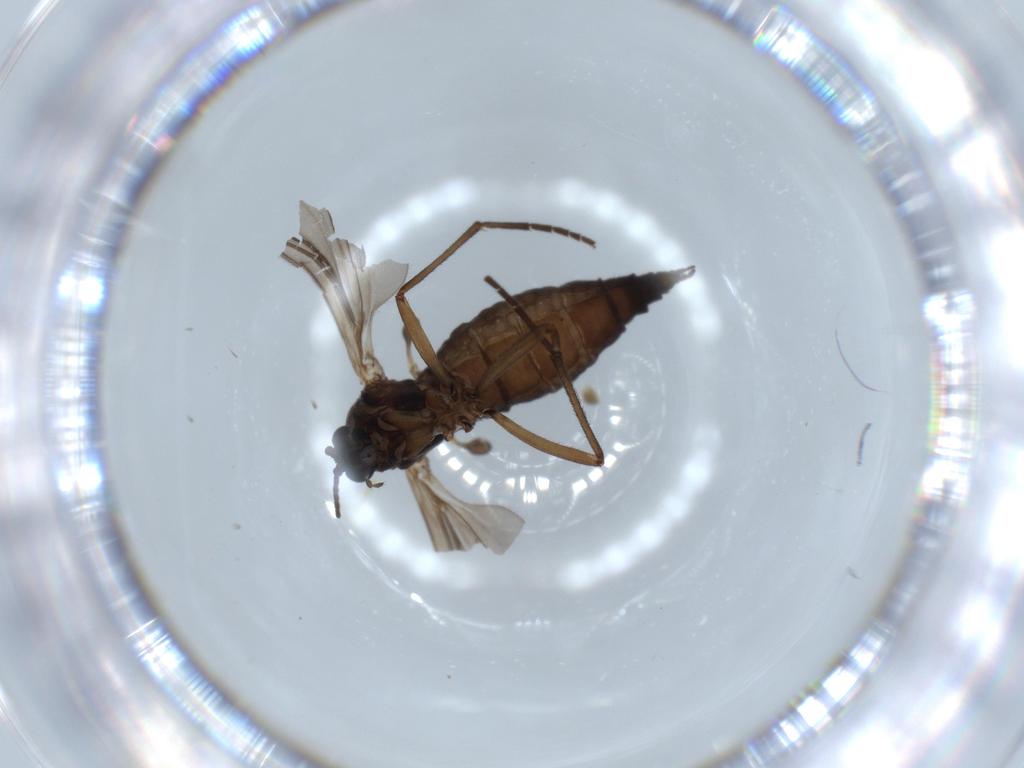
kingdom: Animalia
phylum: Arthropoda
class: Insecta
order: Diptera
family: Sciaridae
